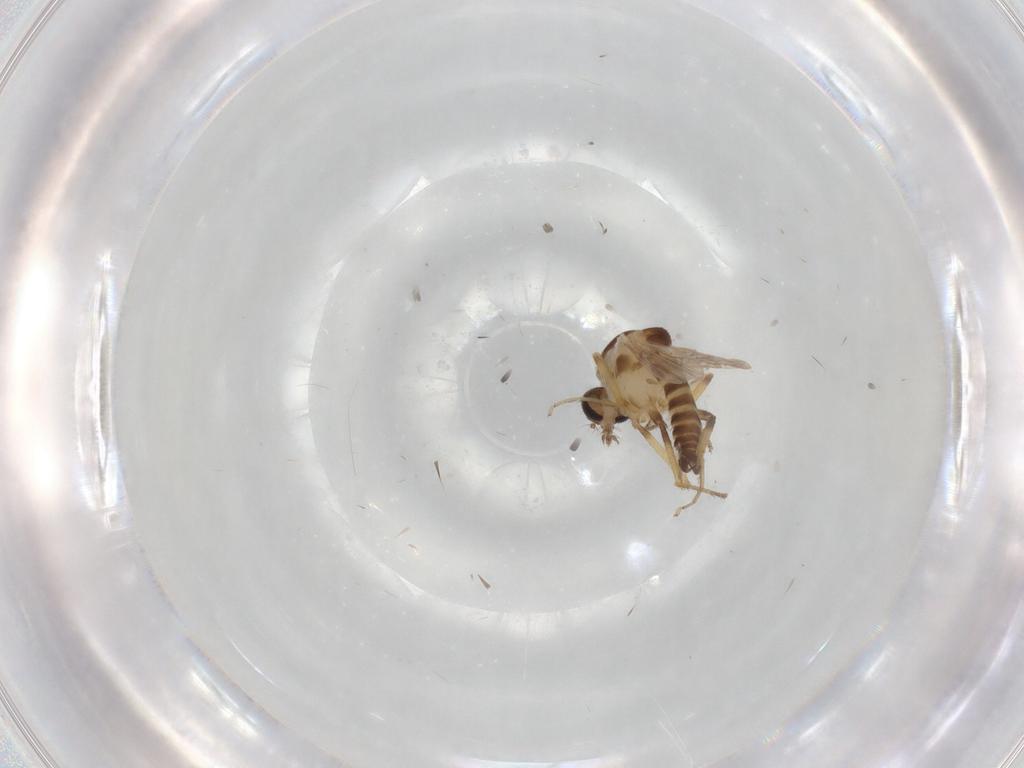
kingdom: Animalia
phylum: Arthropoda
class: Insecta
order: Diptera
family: Ceratopogonidae
